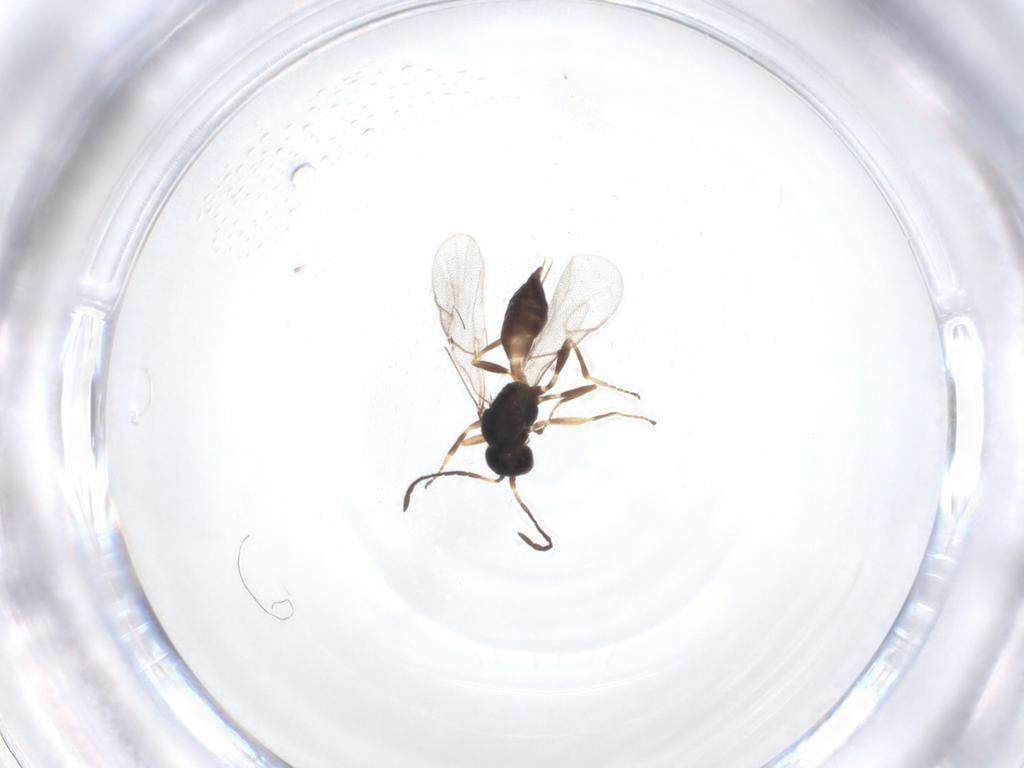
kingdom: Animalia
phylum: Arthropoda
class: Insecta
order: Hymenoptera
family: Braconidae
